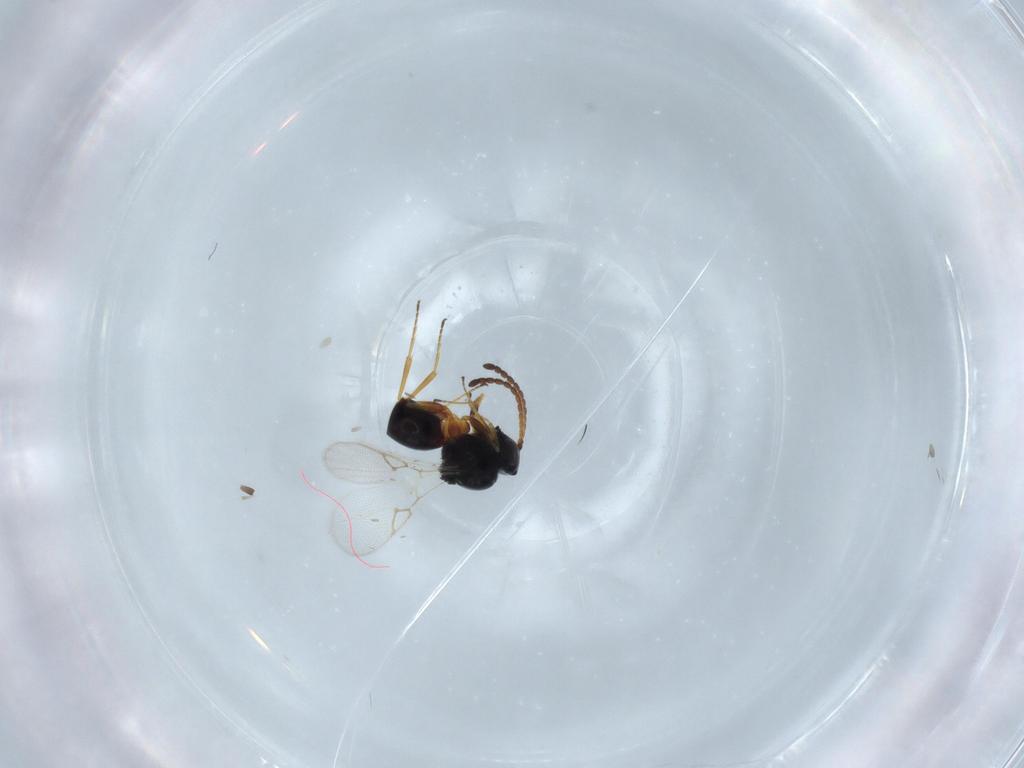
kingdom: Animalia
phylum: Arthropoda
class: Insecta
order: Hymenoptera
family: Figitidae
